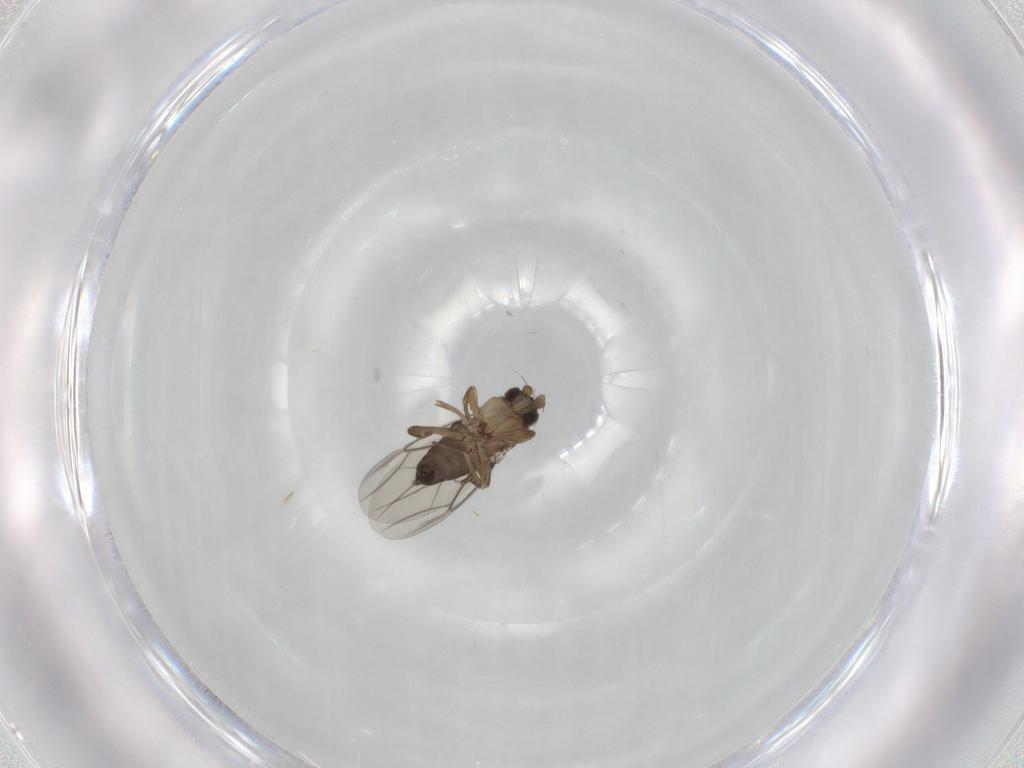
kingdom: Animalia
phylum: Arthropoda
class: Insecta
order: Diptera
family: Phoridae
